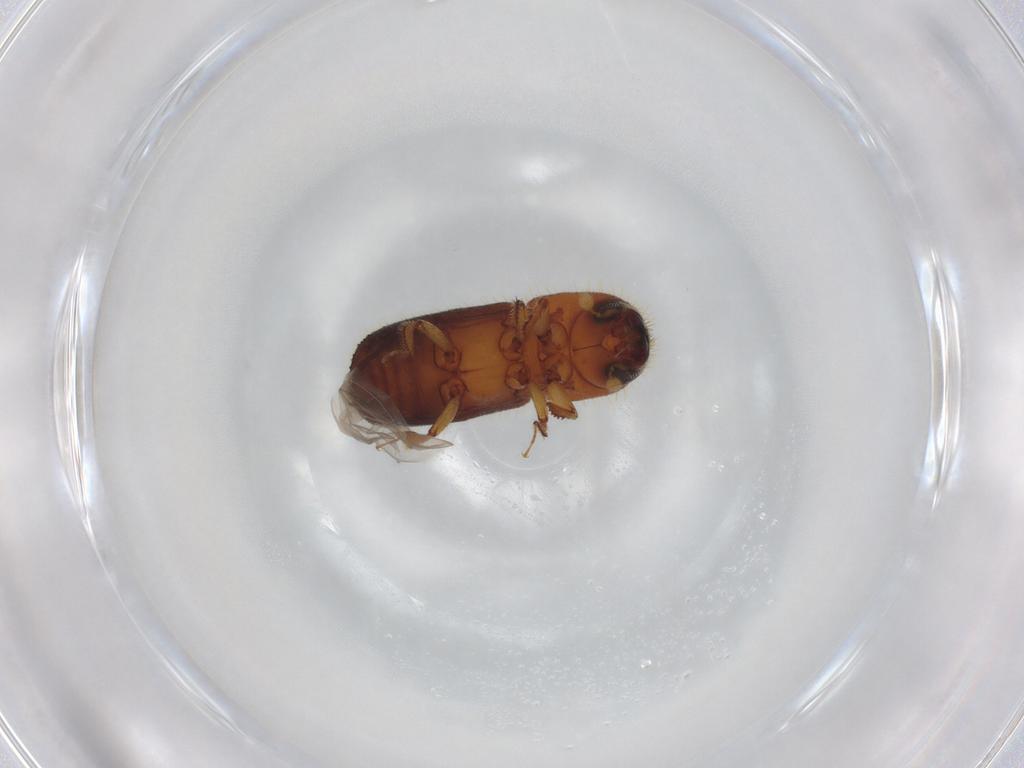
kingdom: Animalia
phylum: Arthropoda
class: Insecta
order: Coleoptera
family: Curculionidae
